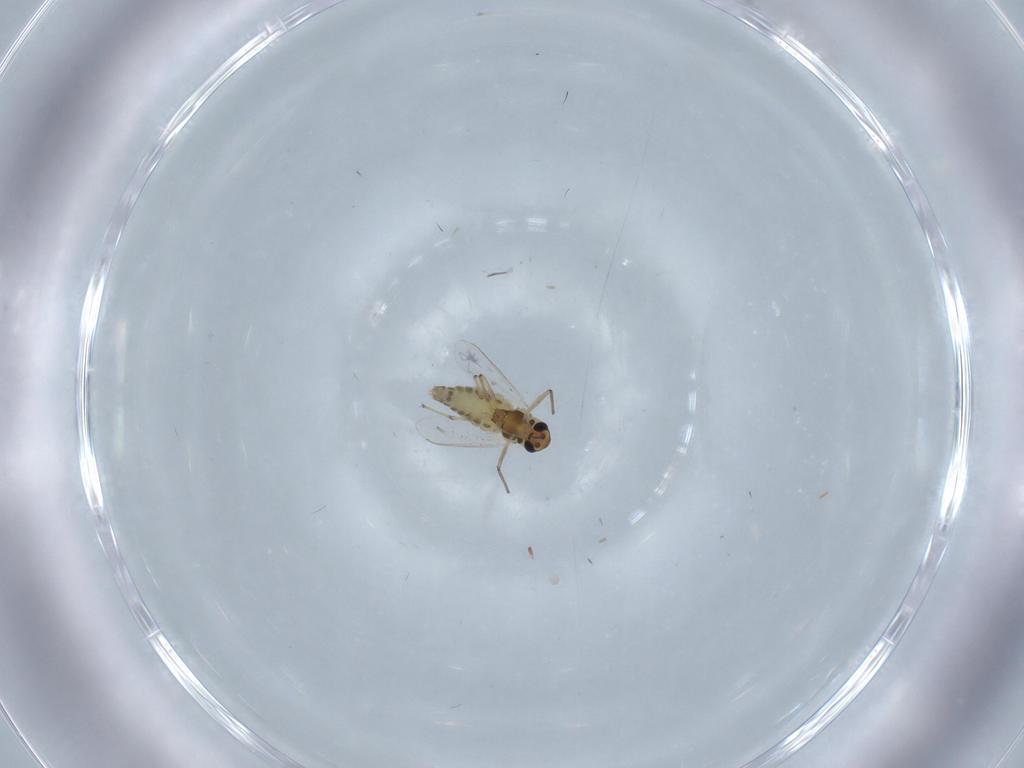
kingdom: Animalia
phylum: Arthropoda
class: Insecta
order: Diptera
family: Chironomidae
